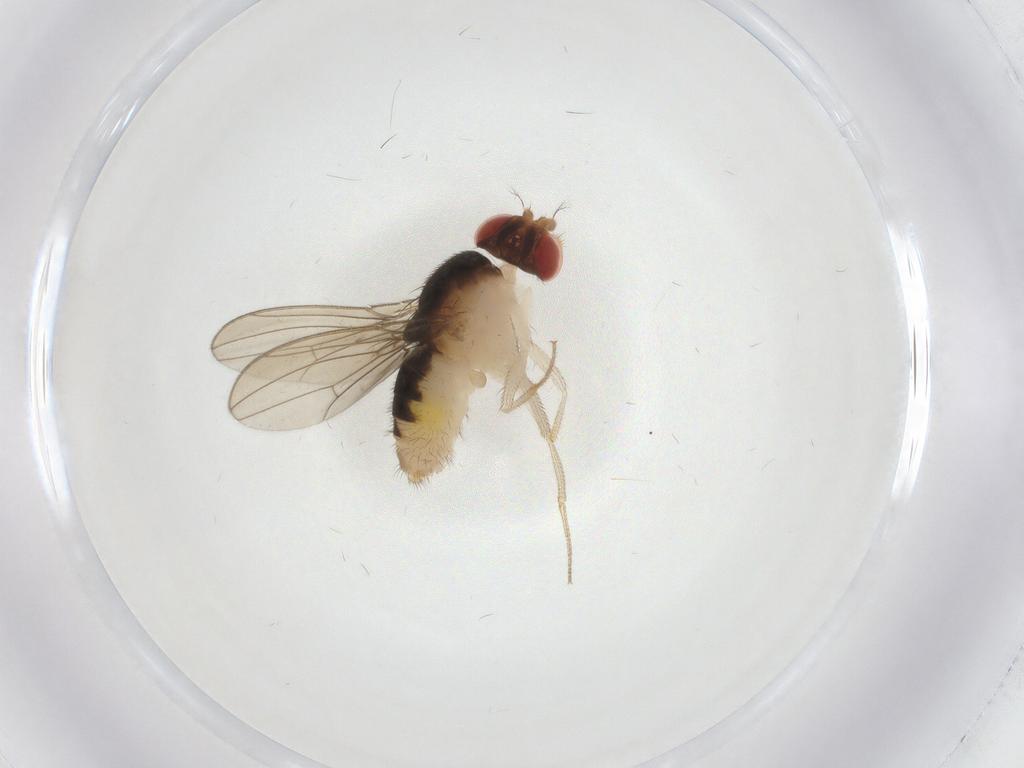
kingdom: Animalia
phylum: Arthropoda
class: Insecta
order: Diptera
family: Drosophilidae
